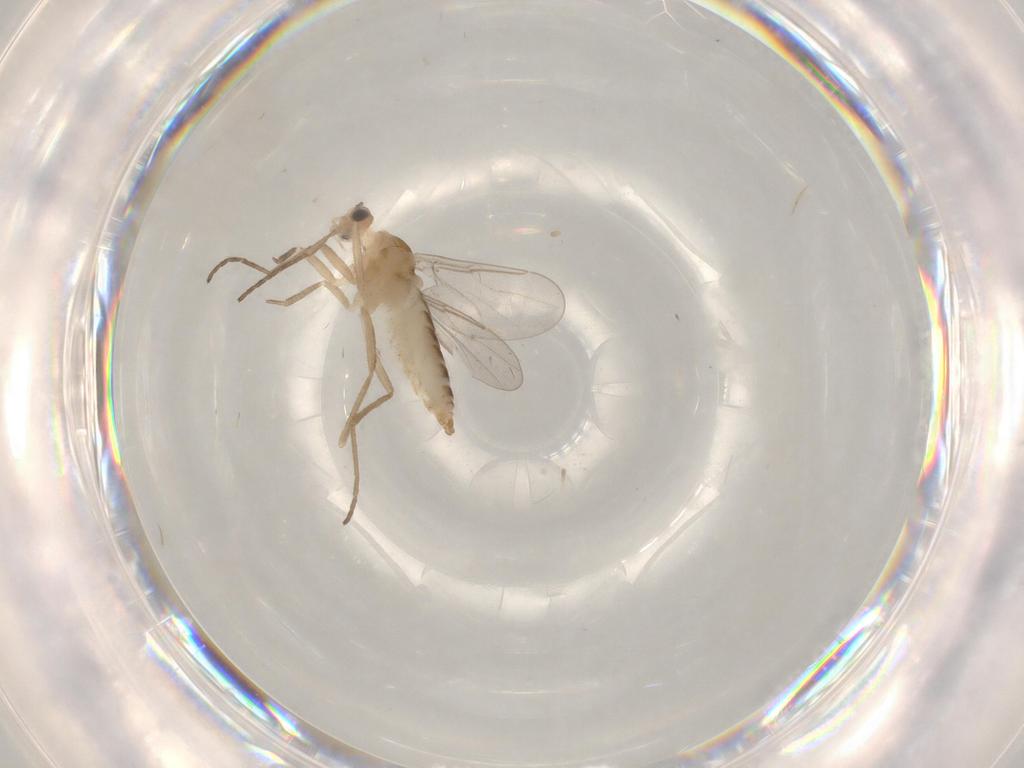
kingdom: Animalia
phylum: Arthropoda
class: Insecta
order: Diptera
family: Cecidomyiidae
